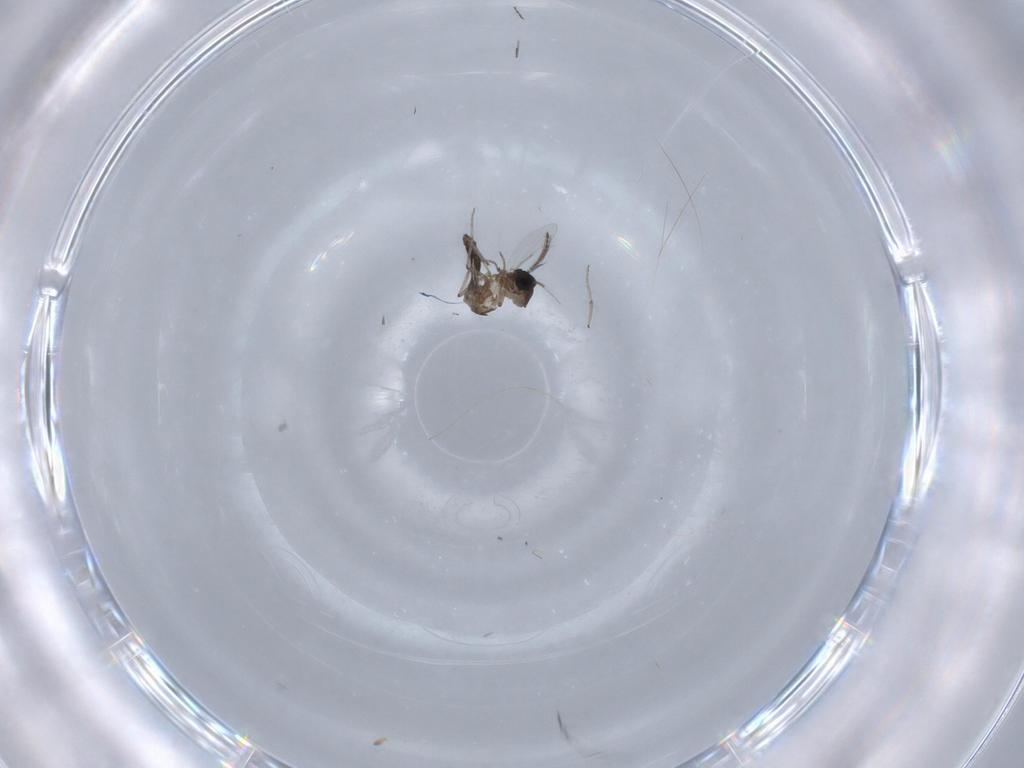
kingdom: Animalia
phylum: Arthropoda
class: Insecta
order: Diptera
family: Ceratopogonidae
